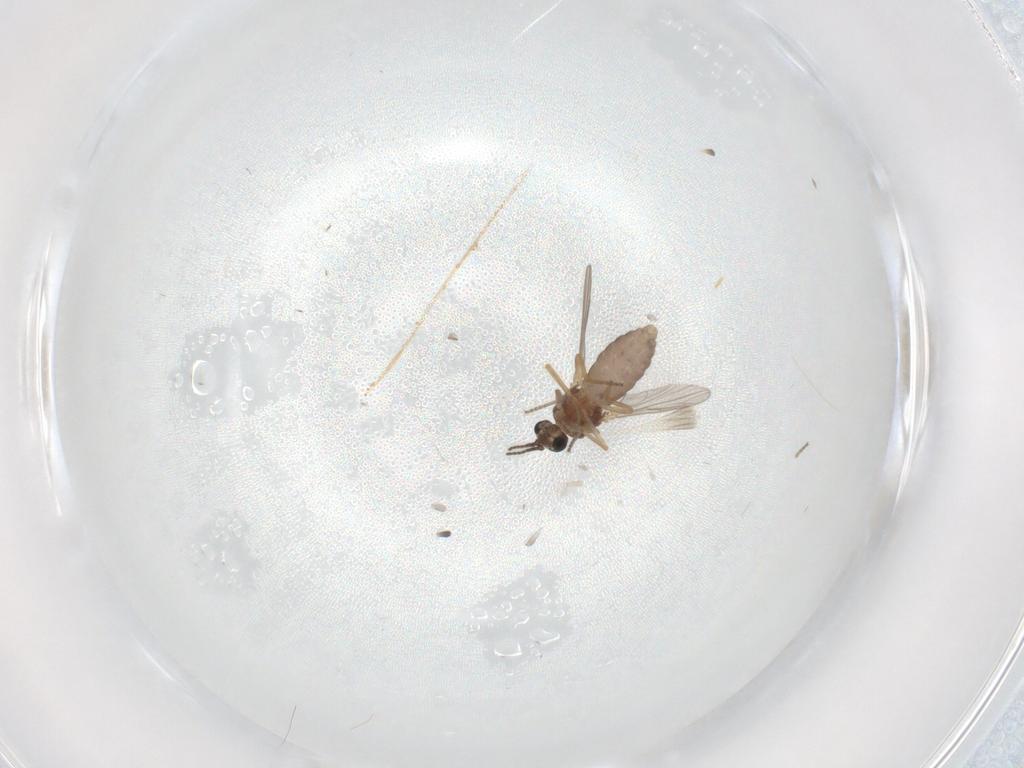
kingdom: Animalia
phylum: Arthropoda
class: Insecta
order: Diptera
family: Ceratopogonidae
